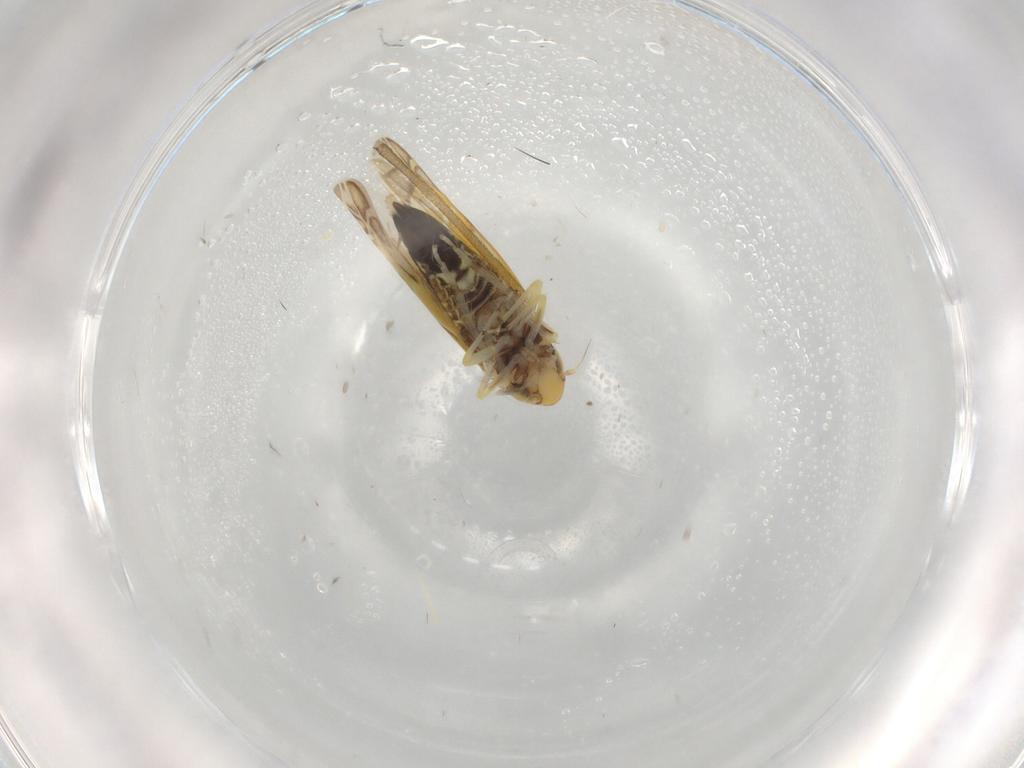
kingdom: Animalia
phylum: Arthropoda
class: Insecta
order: Hemiptera
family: Cicadellidae
